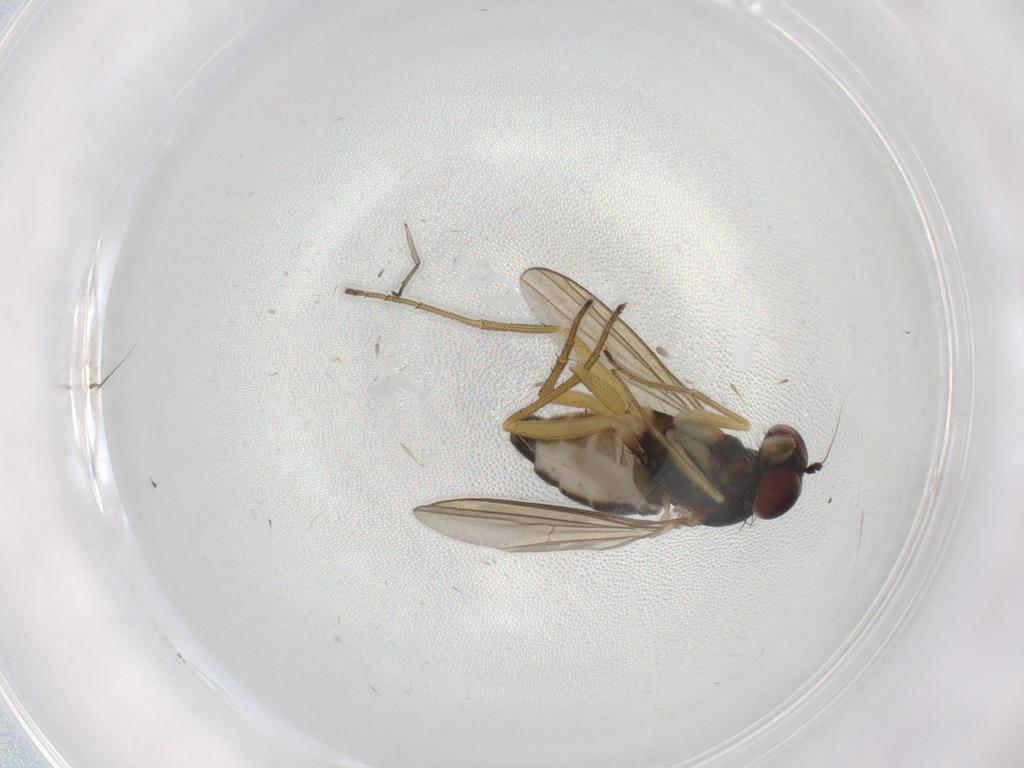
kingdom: Animalia
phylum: Arthropoda
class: Insecta
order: Diptera
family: Dolichopodidae
